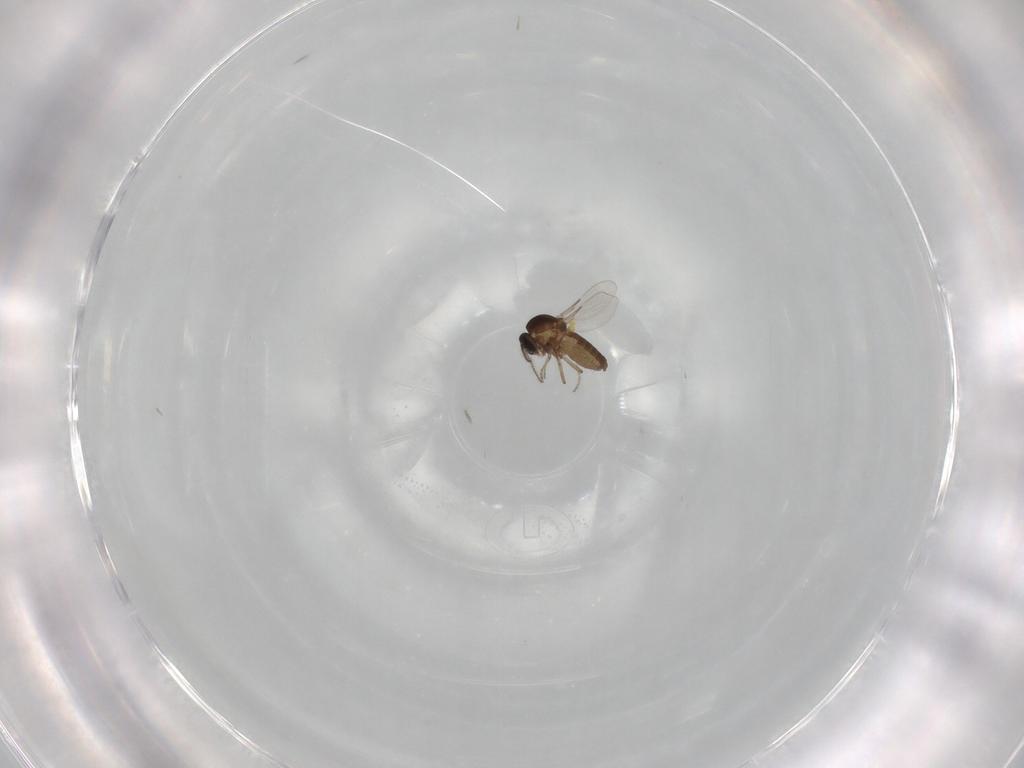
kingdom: Animalia
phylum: Arthropoda
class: Insecta
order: Diptera
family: Ceratopogonidae
